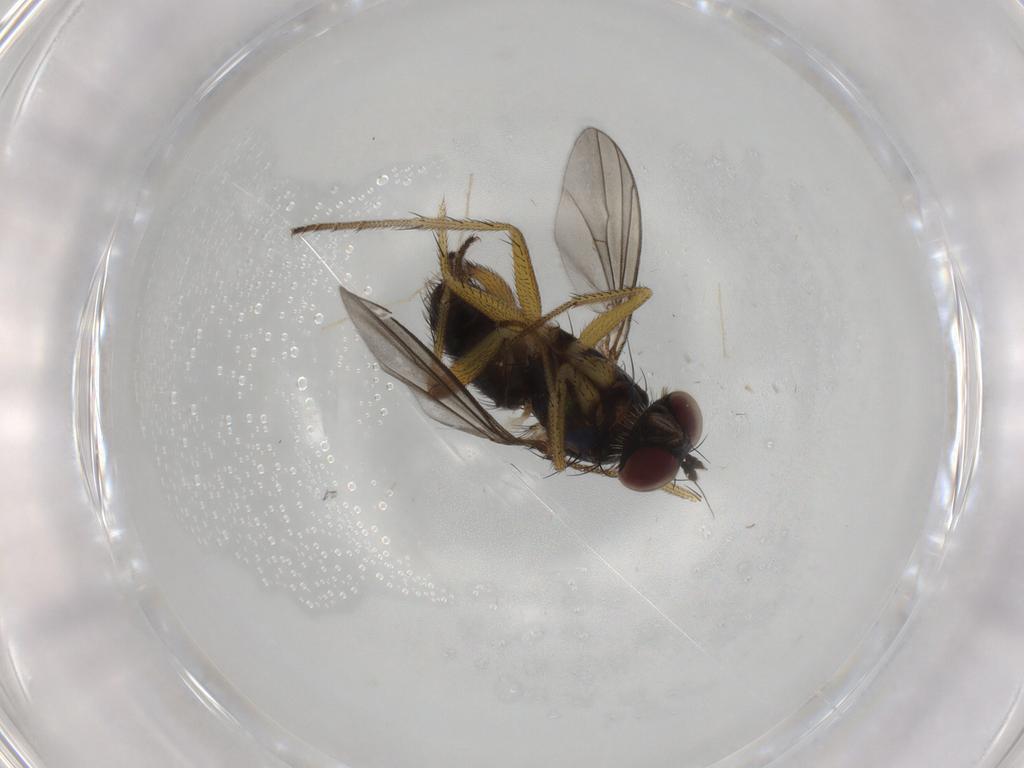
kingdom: Animalia
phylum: Arthropoda
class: Insecta
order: Diptera
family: Dolichopodidae
